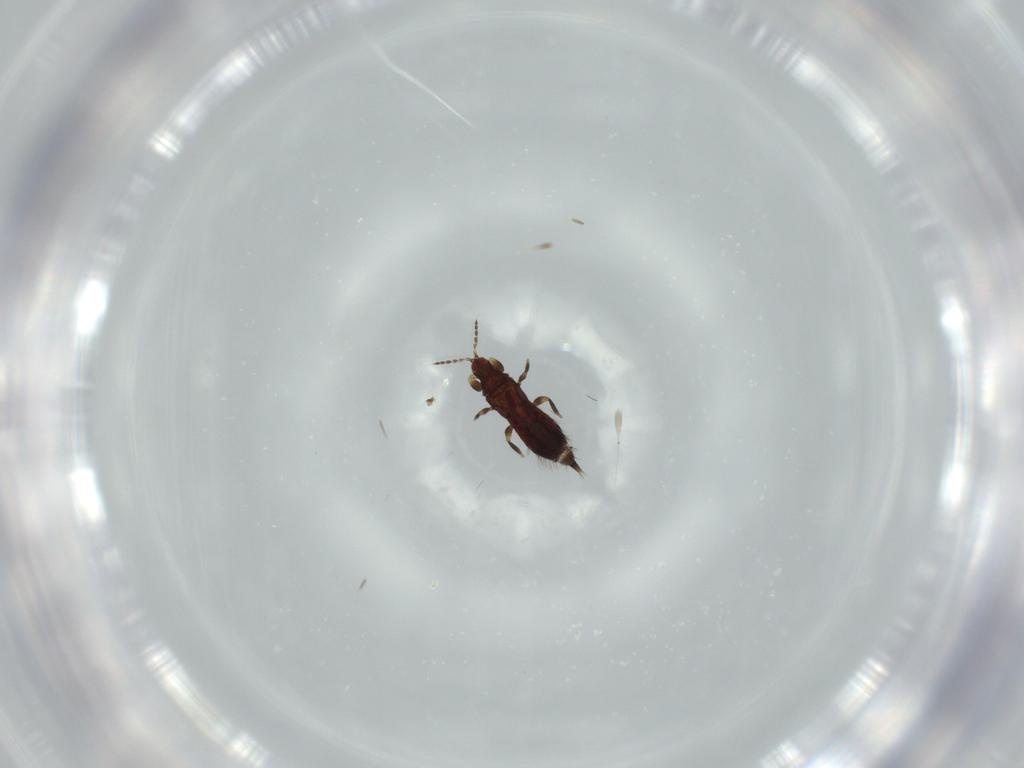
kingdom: Animalia
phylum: Arthropoda
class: Insecta
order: Thysanoptera
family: Phlaeothripidae
